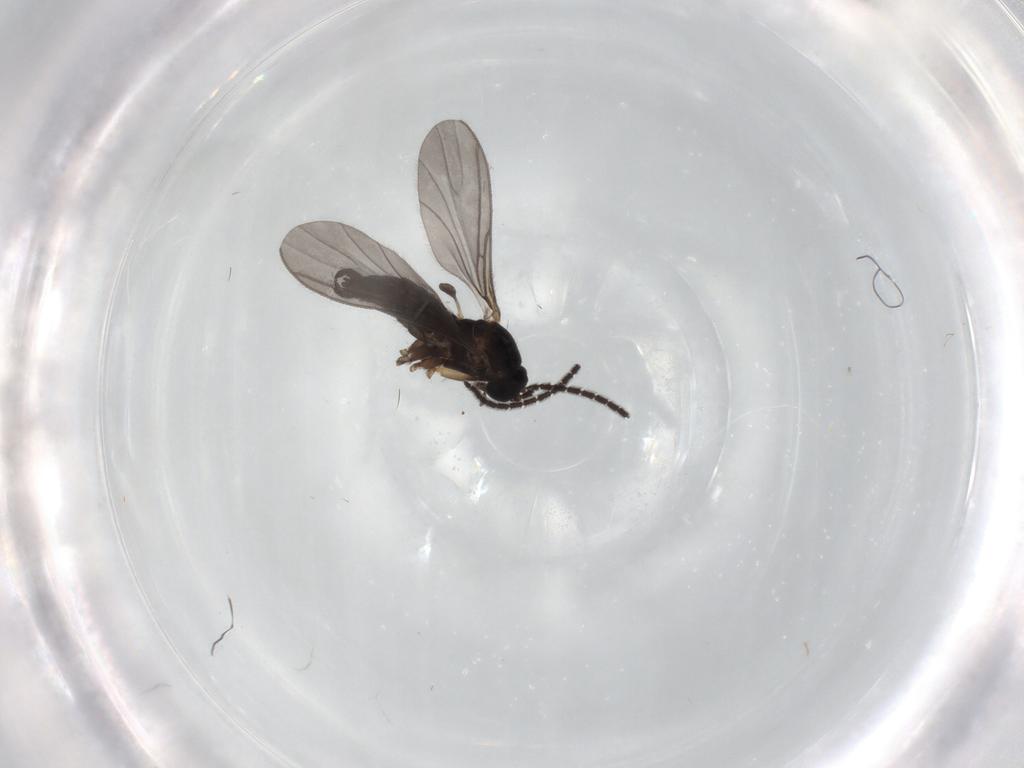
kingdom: Animalia
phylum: Arthropoda
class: Insecta
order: Diptera
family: Sciaridae
